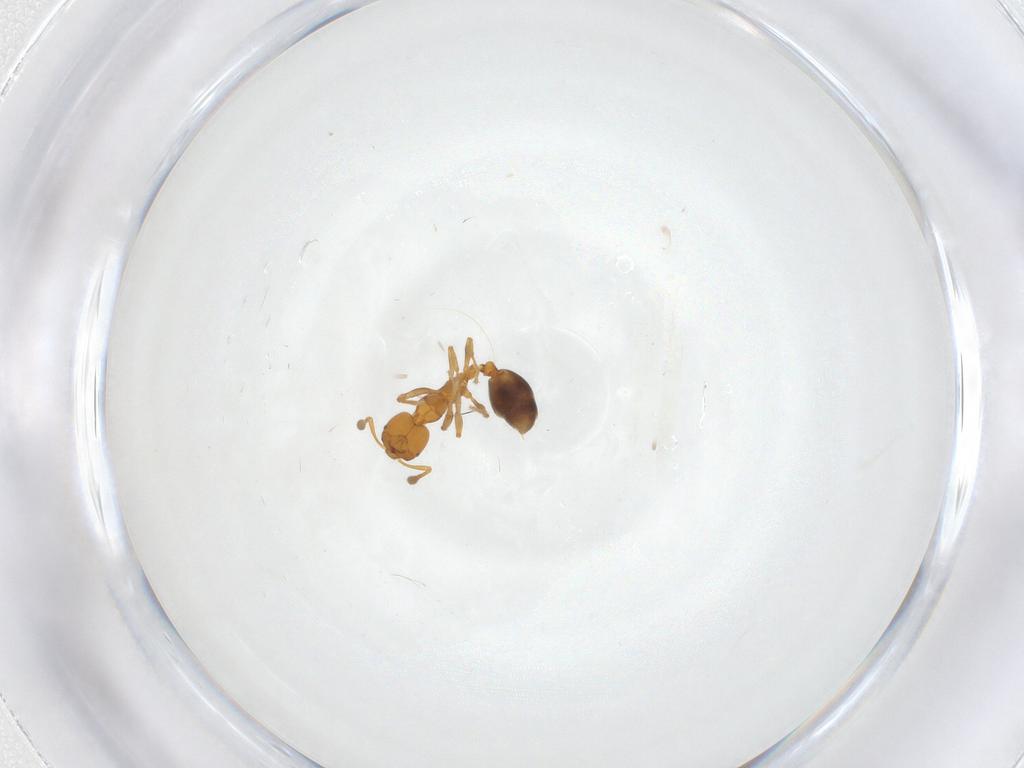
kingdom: Animalia
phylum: Arthropoda
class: Insecta
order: Hymenoptera
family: Formicidae
